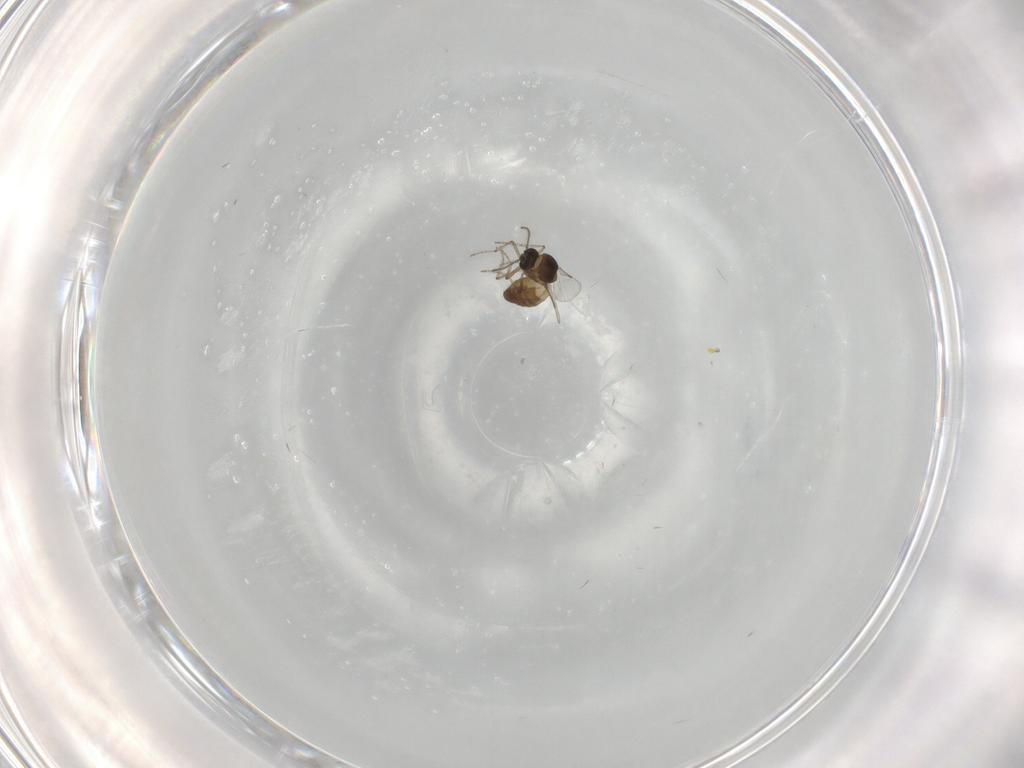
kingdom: Animalia
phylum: Arthropoda
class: Insecta
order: Diptera
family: Ceratopogonidae
